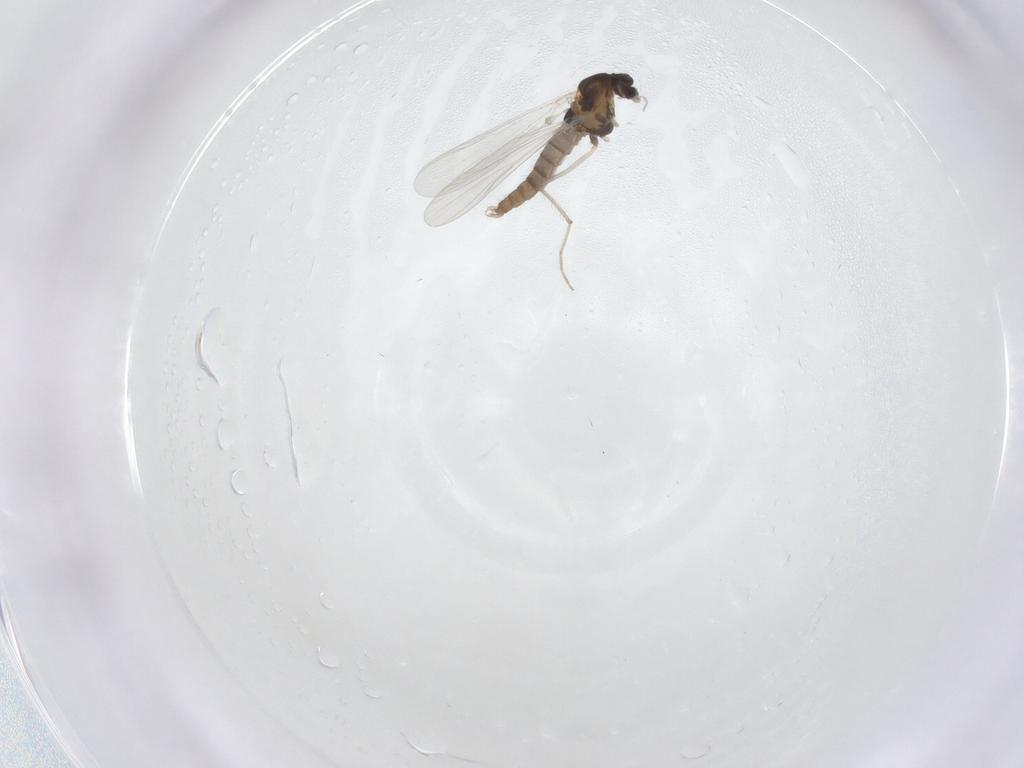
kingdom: Animalia
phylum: Arthropoda
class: Insecta
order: Diptera
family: Chironomidae
